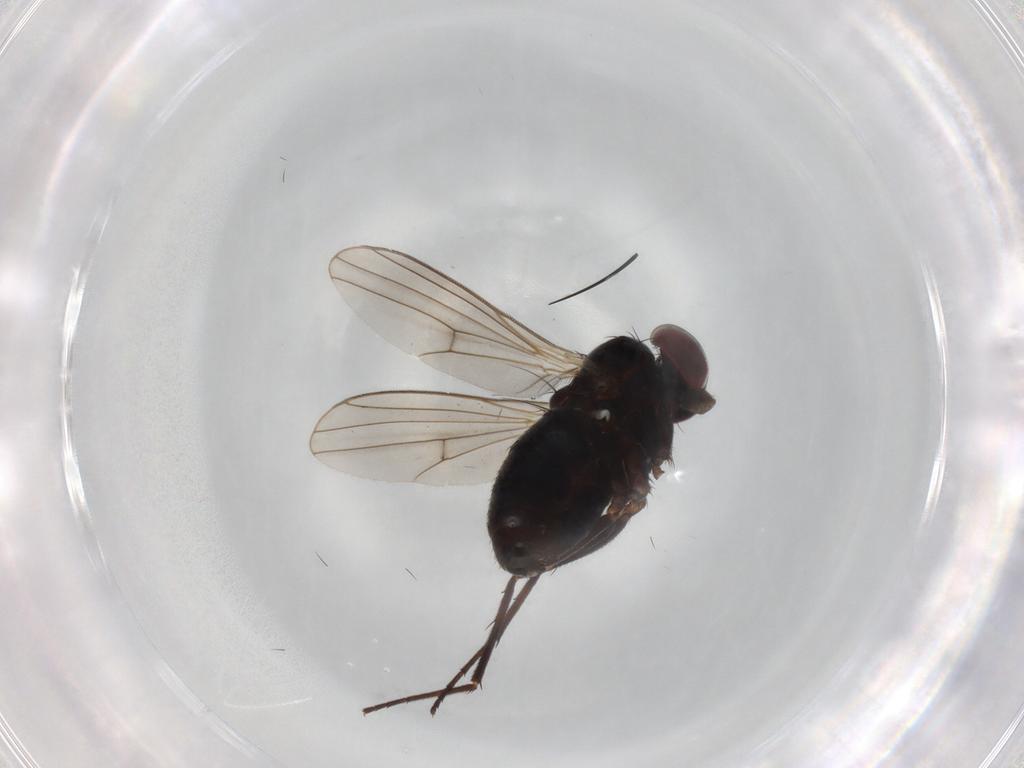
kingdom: Animalia
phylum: Arthropoda
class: Insecta
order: Diptera
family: Dolichopodidae
